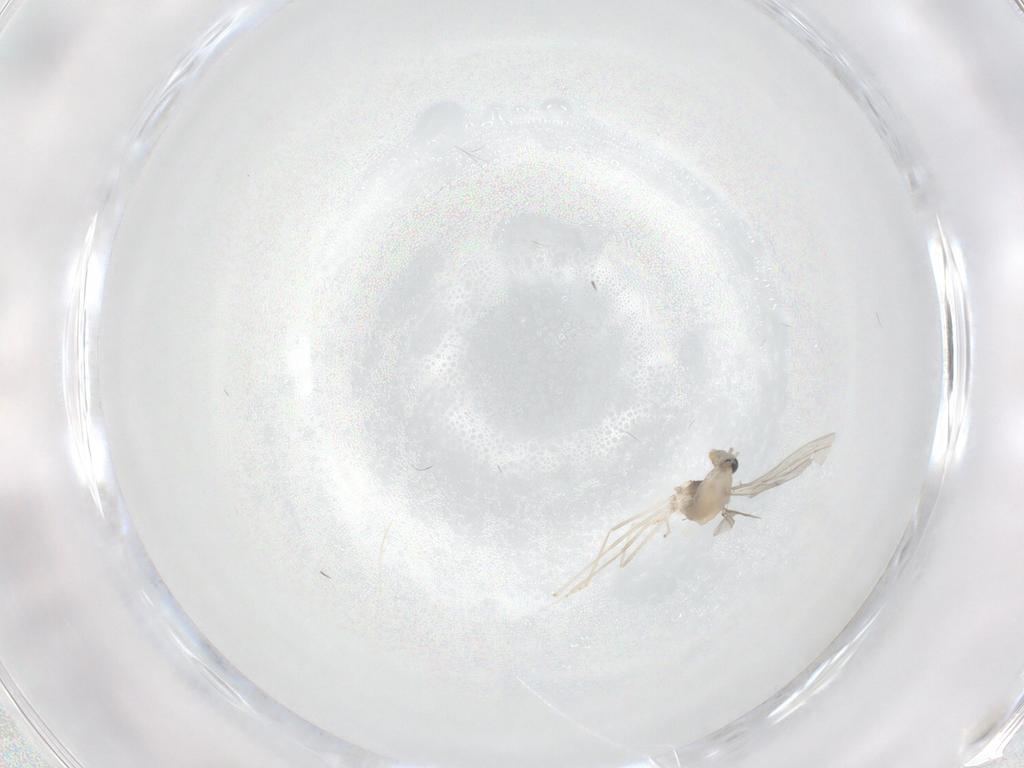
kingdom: Animalia
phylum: Arthropoda
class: Insecta
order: Diptera
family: Cecidomyiidae
